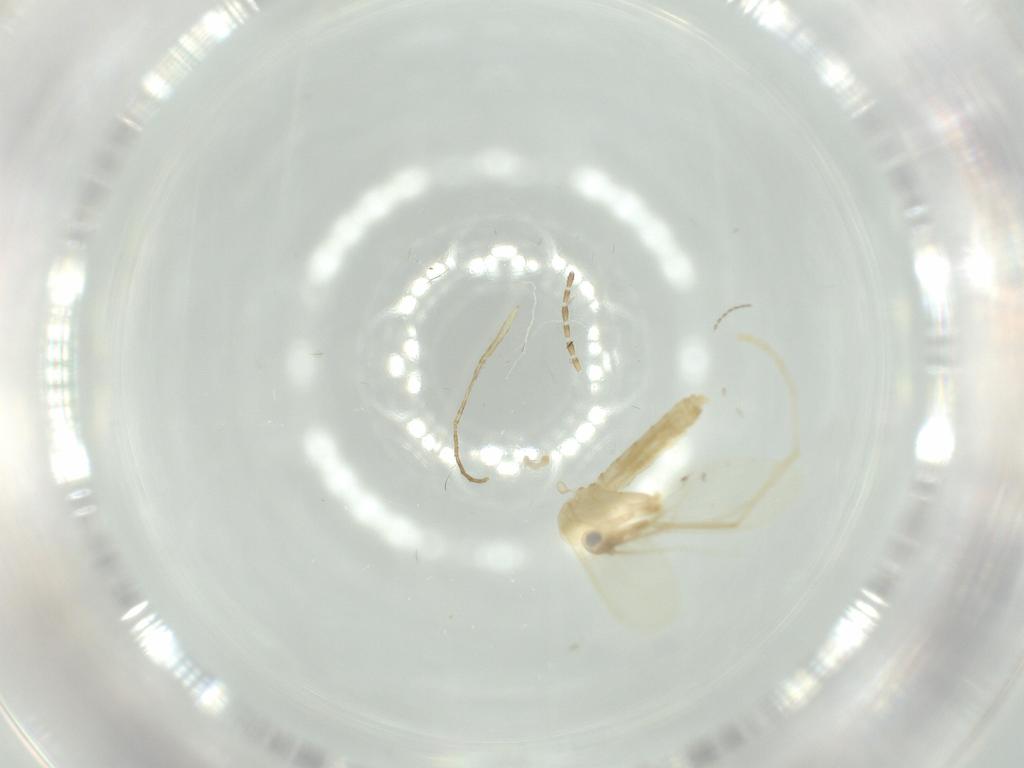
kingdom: Animalia
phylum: Arthropoda
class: Insecta
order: Diptera
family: Psychodidae
